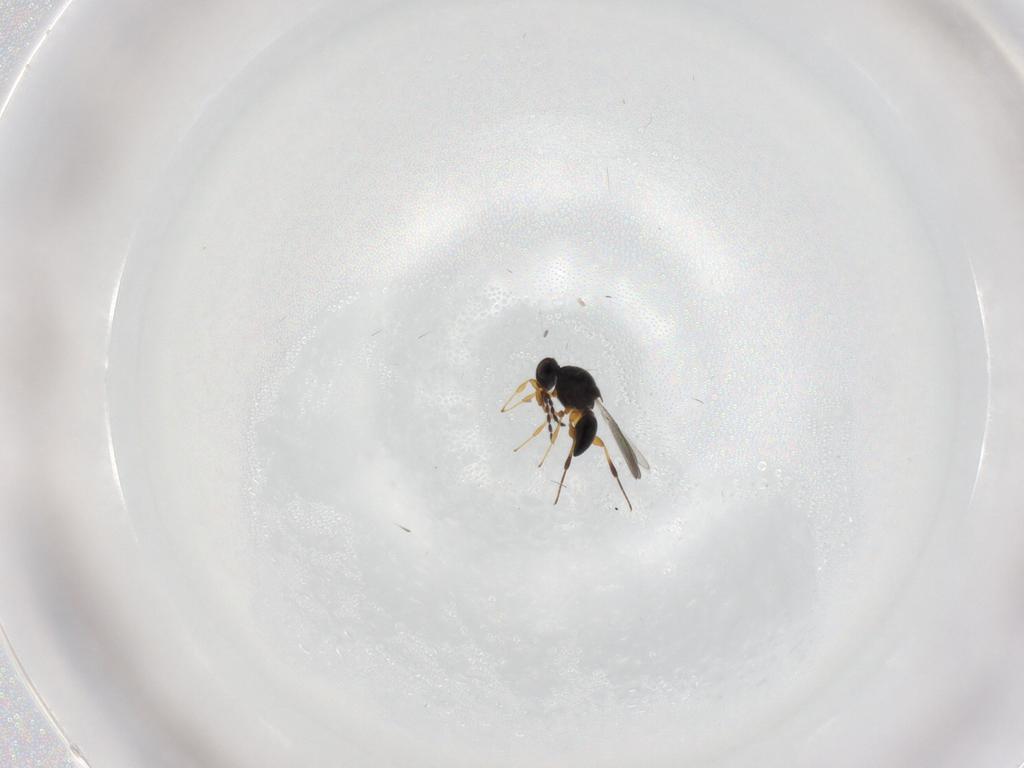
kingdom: Animalia
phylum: Arthropoda
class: Insecta
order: Hymenoptera
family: Platygastridae
